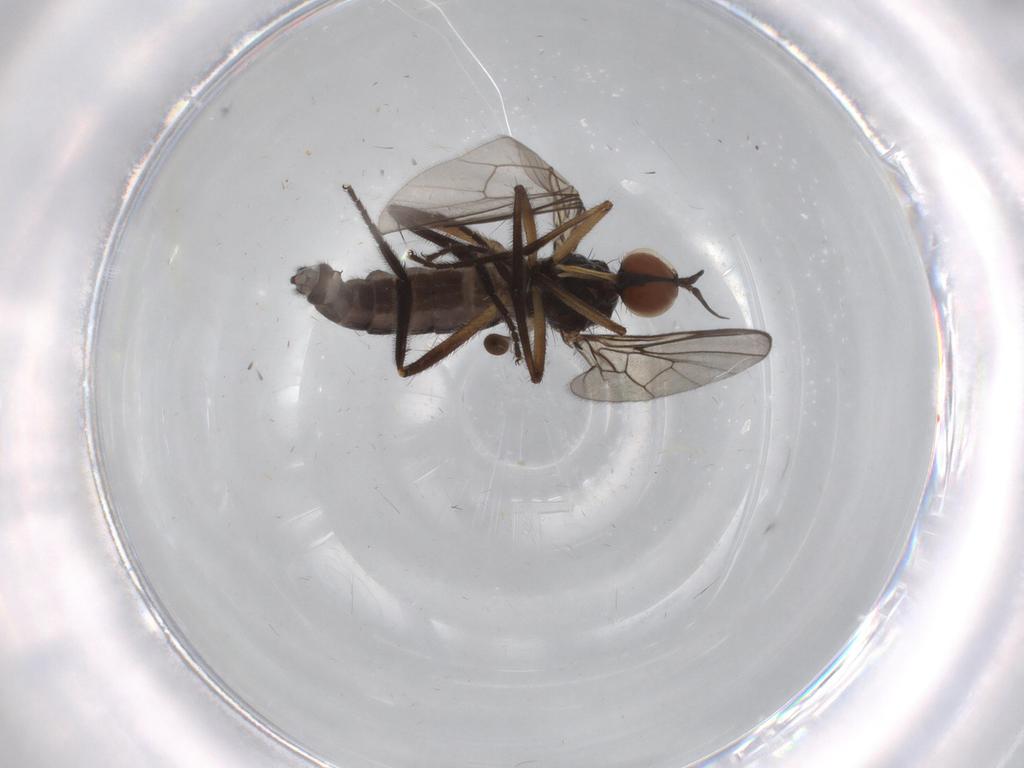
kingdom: Animalia
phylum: Arthropoda
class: Insecta
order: Diptera
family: Empididae
